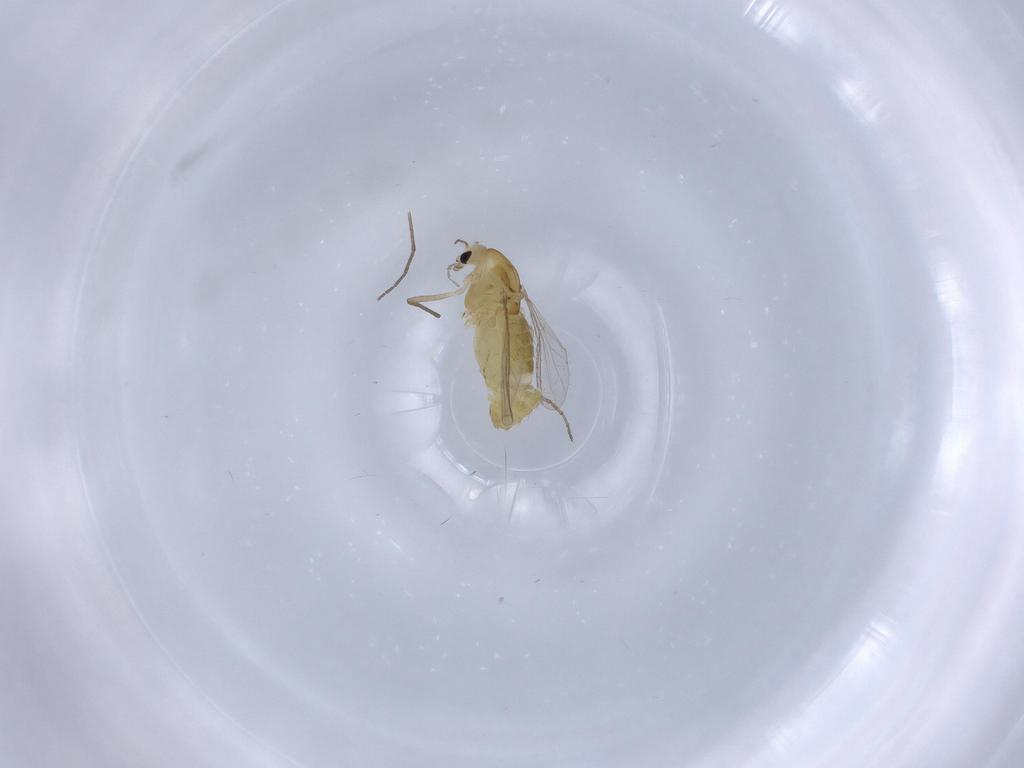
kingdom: Animalia
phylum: Arthropoda
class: Insecta
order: Diptera
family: Chironomidae
